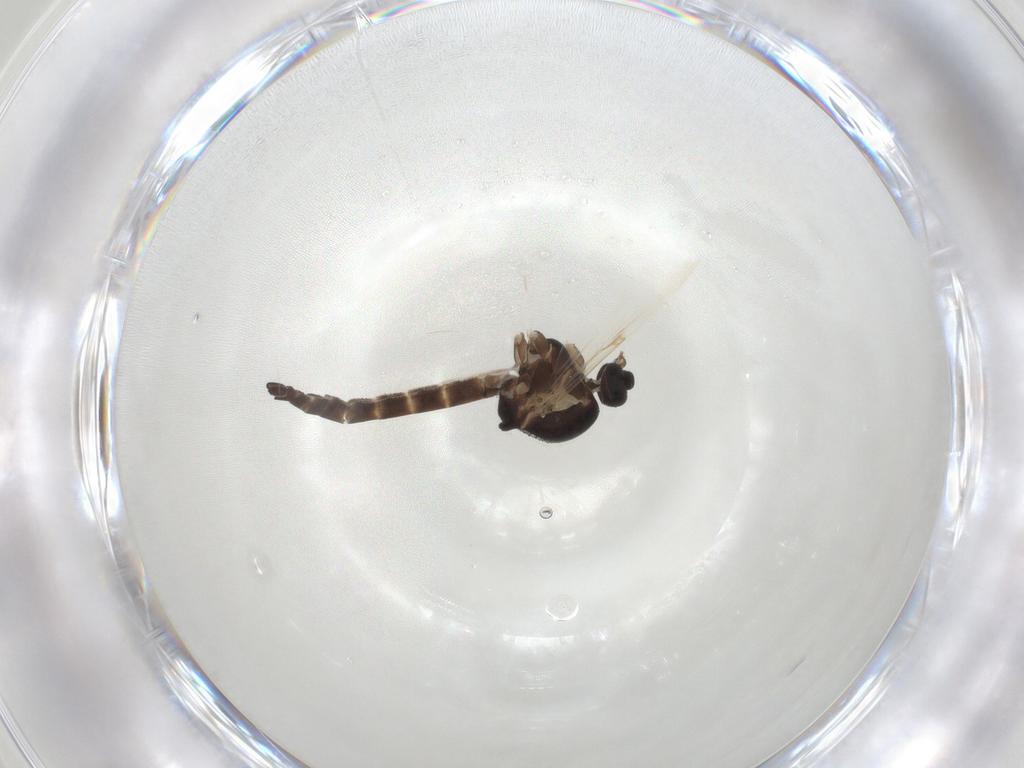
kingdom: Animalia
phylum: Arthropoda
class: Insecta
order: Diptera
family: Ceratopogonidae
